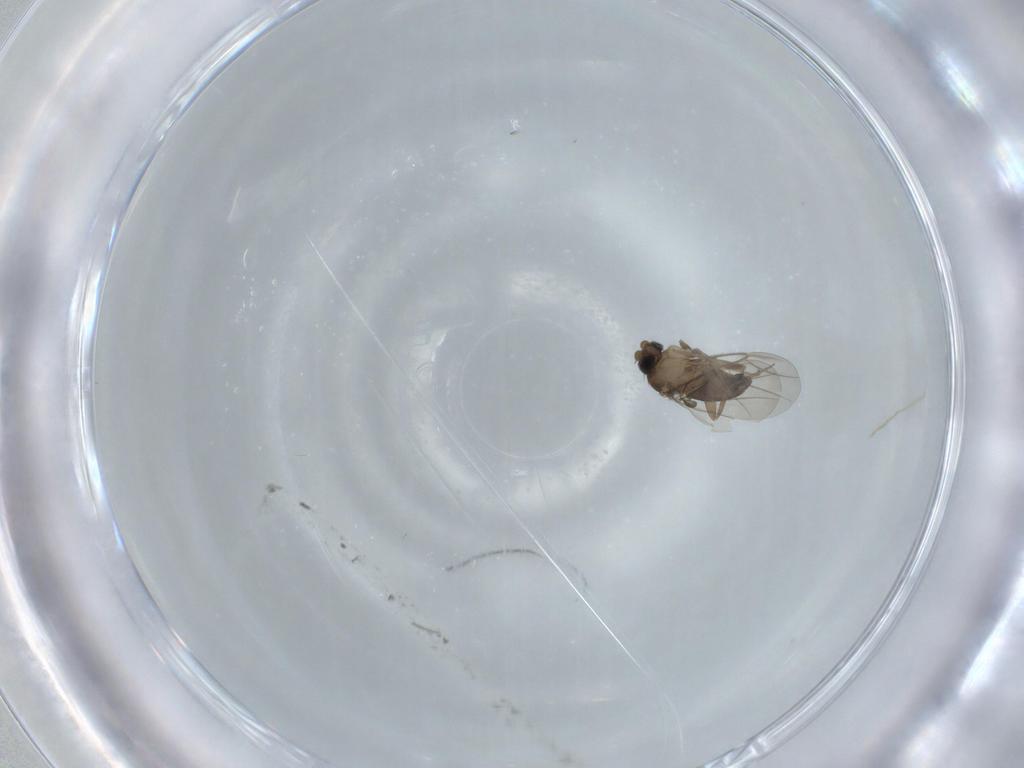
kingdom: Animalia
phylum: Arthropoda
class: Insecta
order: Diptera
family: Phoridae
